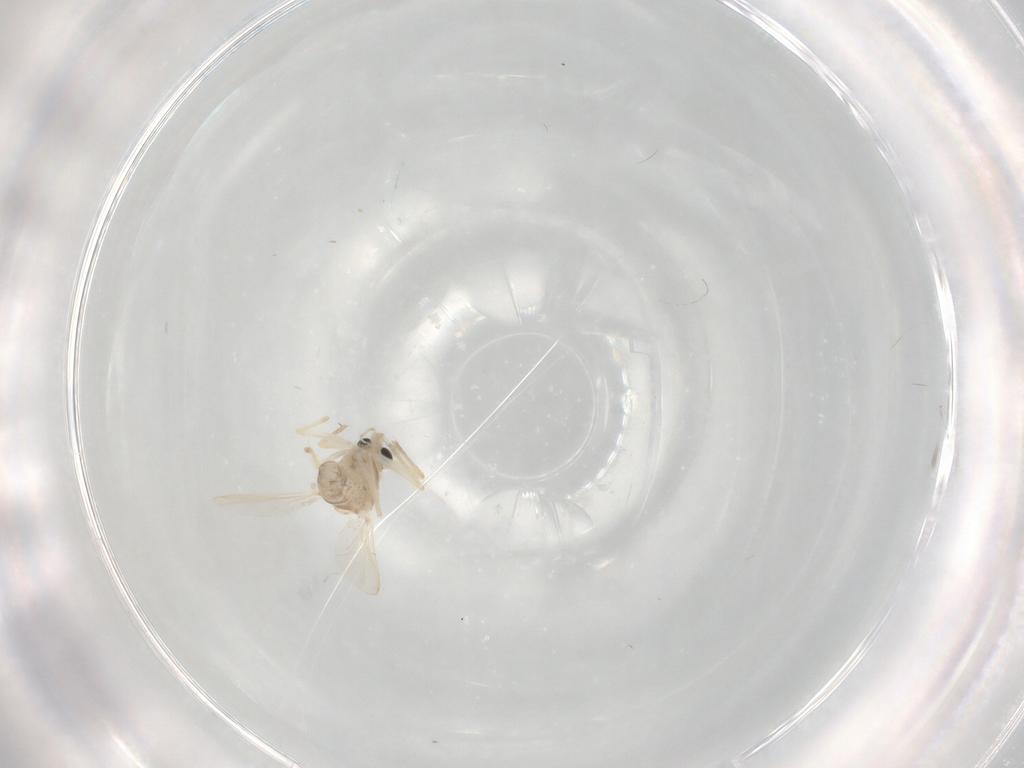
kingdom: Animalia
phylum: Arthropoda
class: Insecta
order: Diptera
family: Chironomidae
